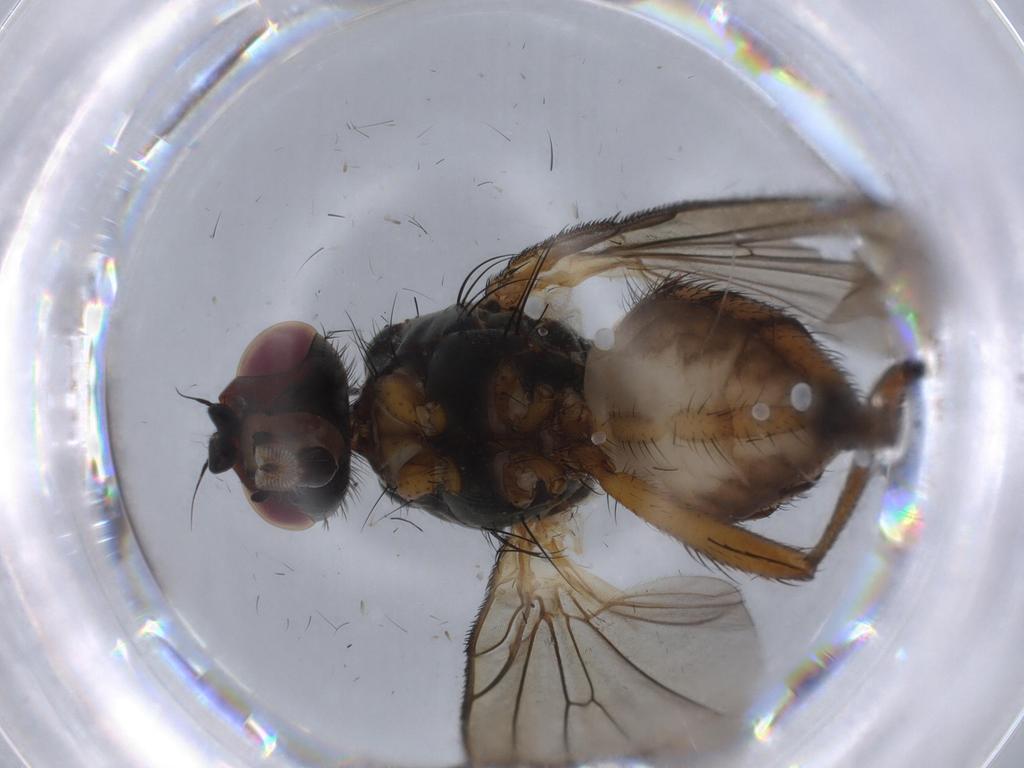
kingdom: Animalia
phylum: Arthropoda
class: Insecta
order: Diptera
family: Anthomyiidae
